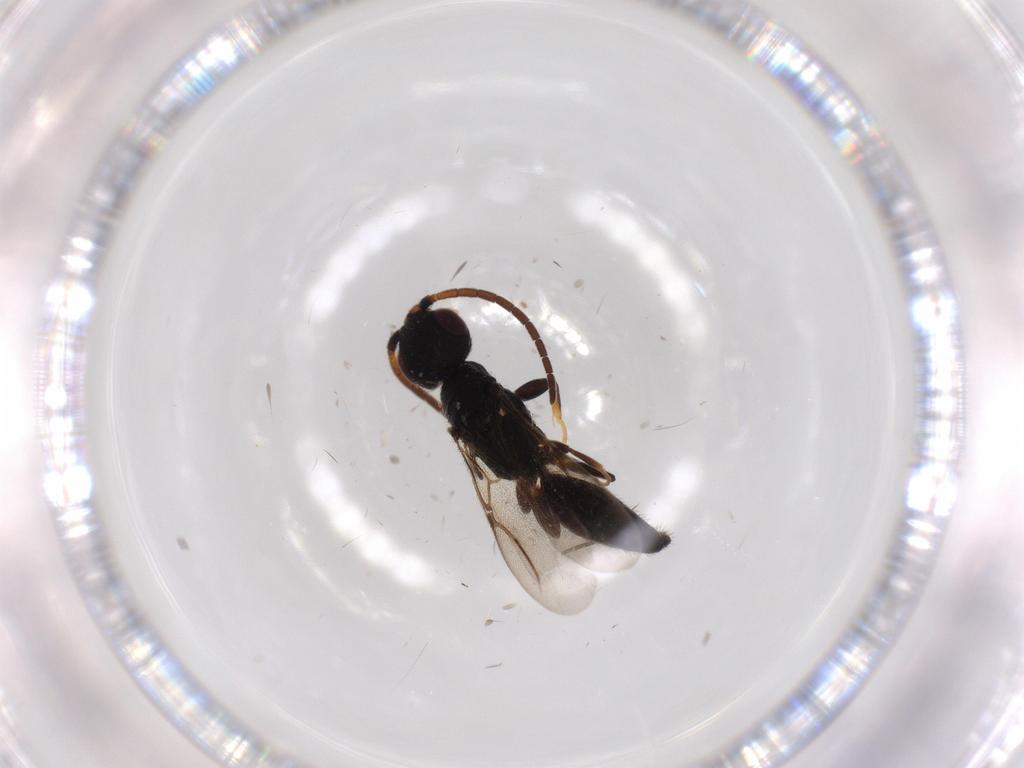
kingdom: Animalia
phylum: Arthropoda
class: Insecta
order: Hymenoptera
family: Bethylidae
